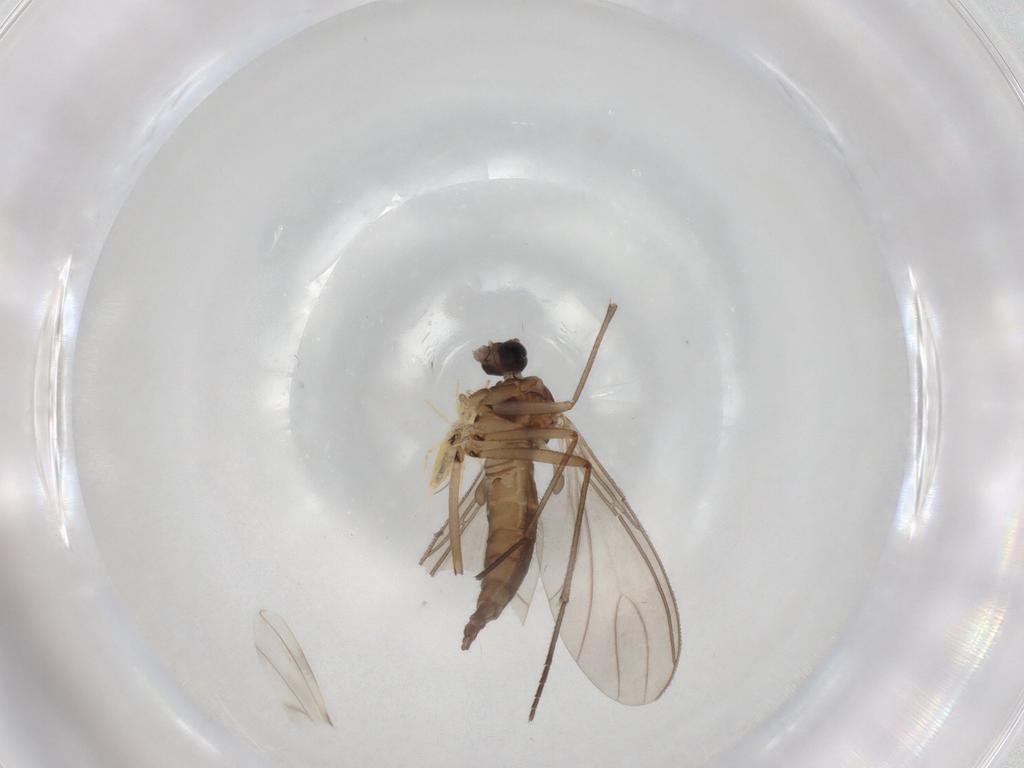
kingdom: Animalia
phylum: Arthropoda
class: Insecta
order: Diptera
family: Sciaridae
